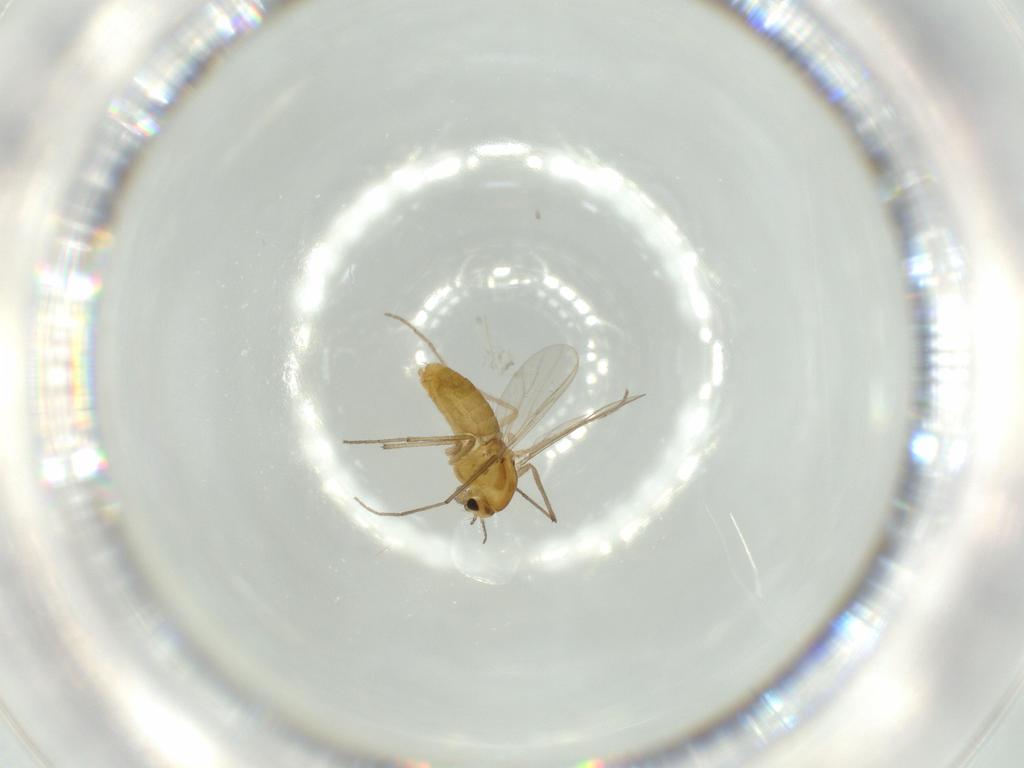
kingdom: Animalia
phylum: Arthropoda
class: Insecta
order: Diptera
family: Chironomidae
